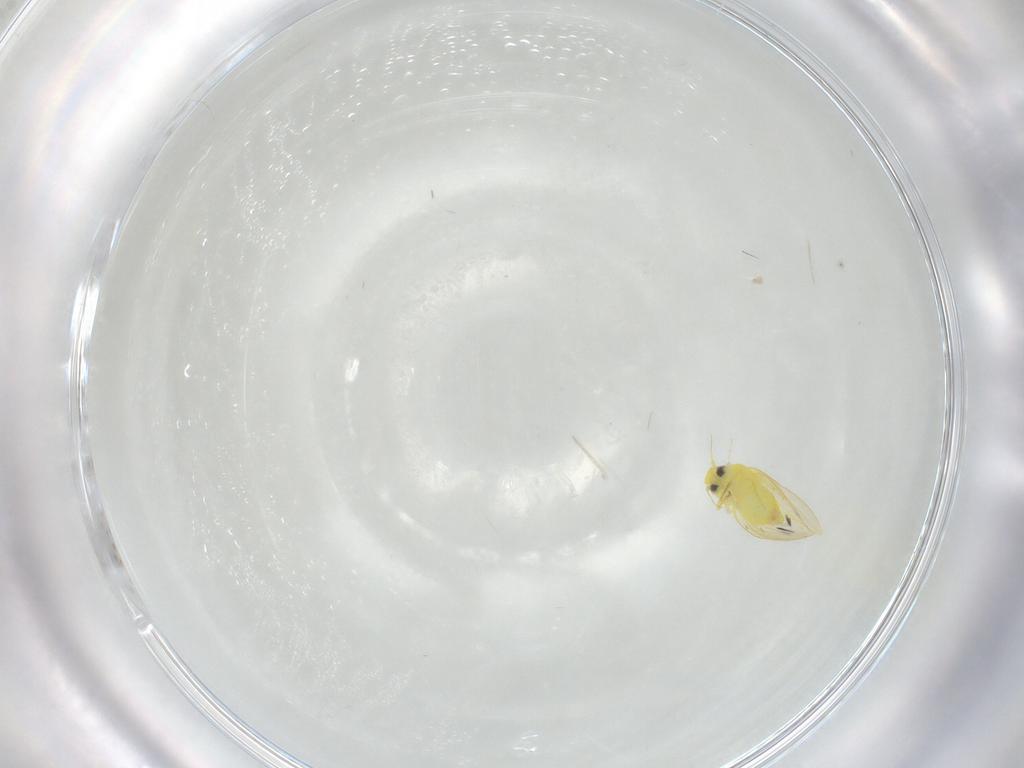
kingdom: Animalia
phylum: Arthropoda
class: Insecta
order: Hemiptera
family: Aleyrodidae
